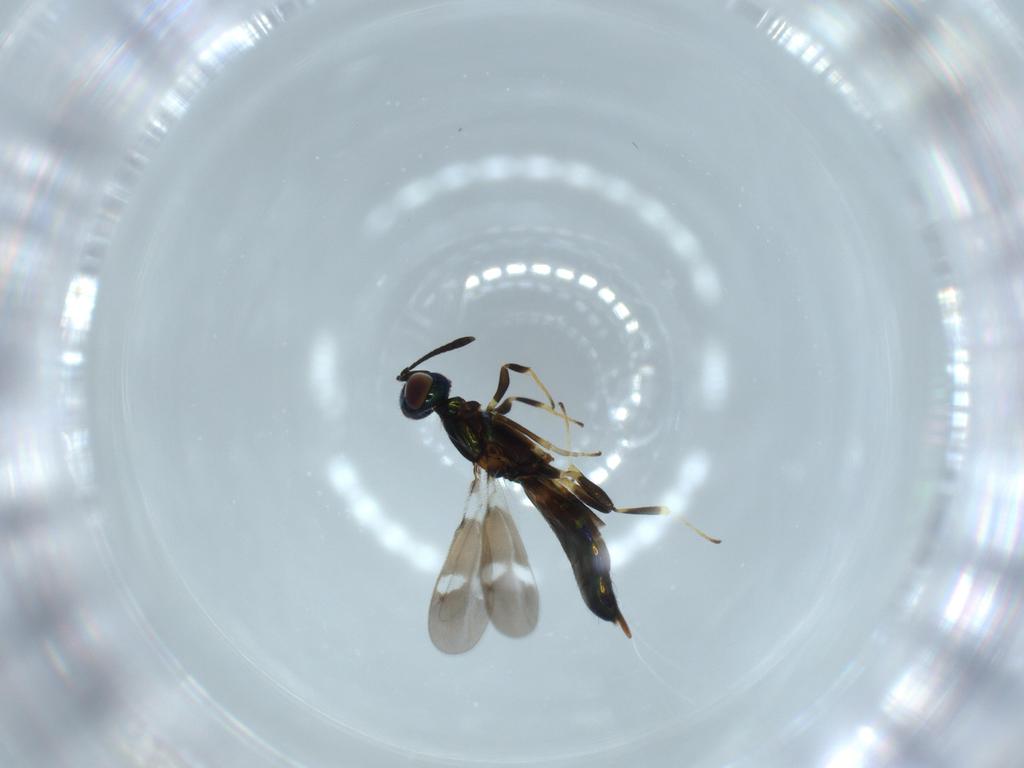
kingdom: Animalia
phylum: Arthropoda
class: Insecta
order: Hymenoptera
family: Eupelmidae
